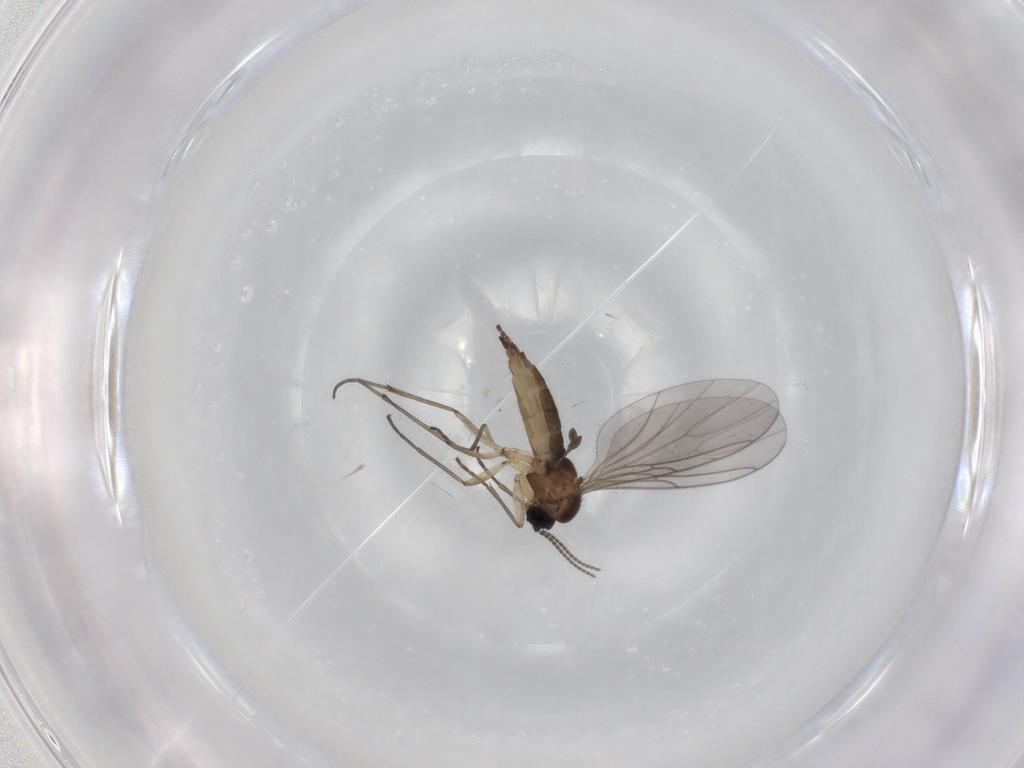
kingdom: Animalia
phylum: Arthropoda
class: Insecta
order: Diptera
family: Sciaridae
